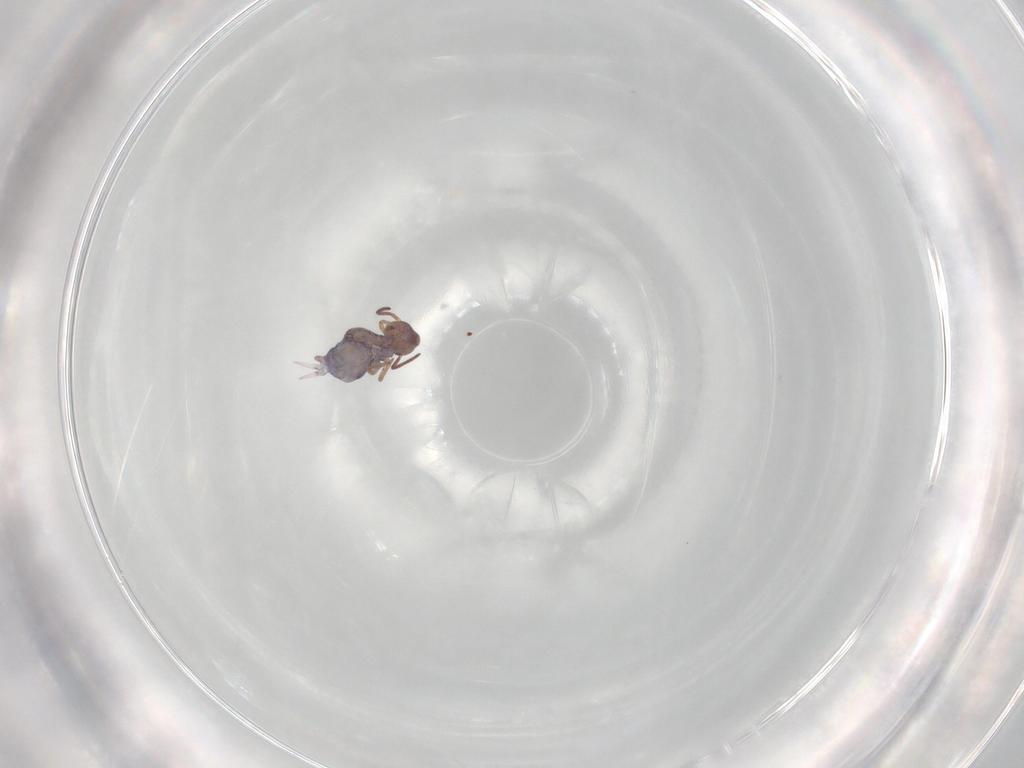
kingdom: Animalia
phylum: Arthropoda
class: Collembola
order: Symphypleona
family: Bourletiellidae
